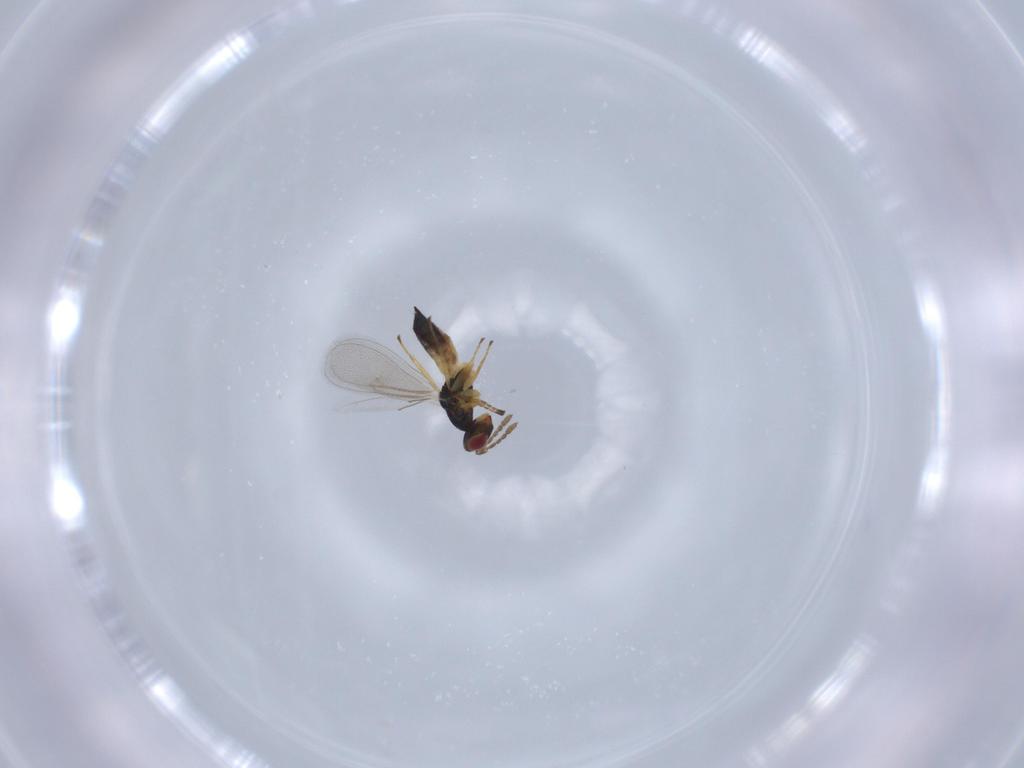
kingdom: Animalia
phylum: Arthropoda
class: Insecta
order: Hymenoptera
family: Eulophidae
